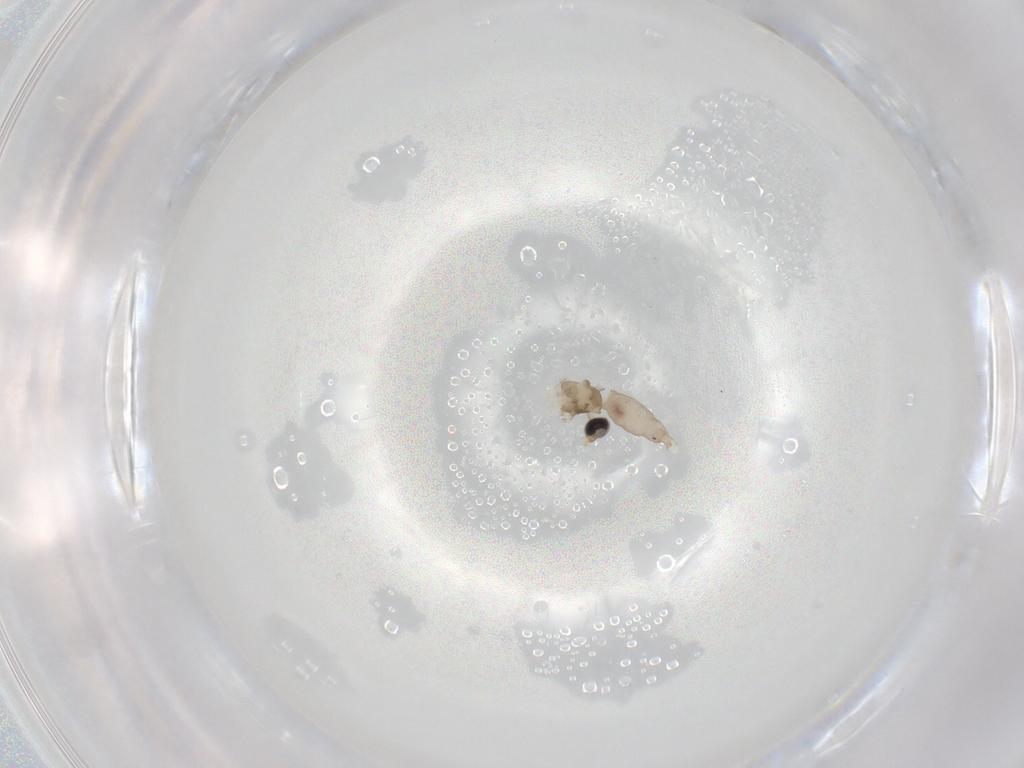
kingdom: Animalia
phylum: Arthropoda
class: Insecta
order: Diptera
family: Cecidomyiidae
